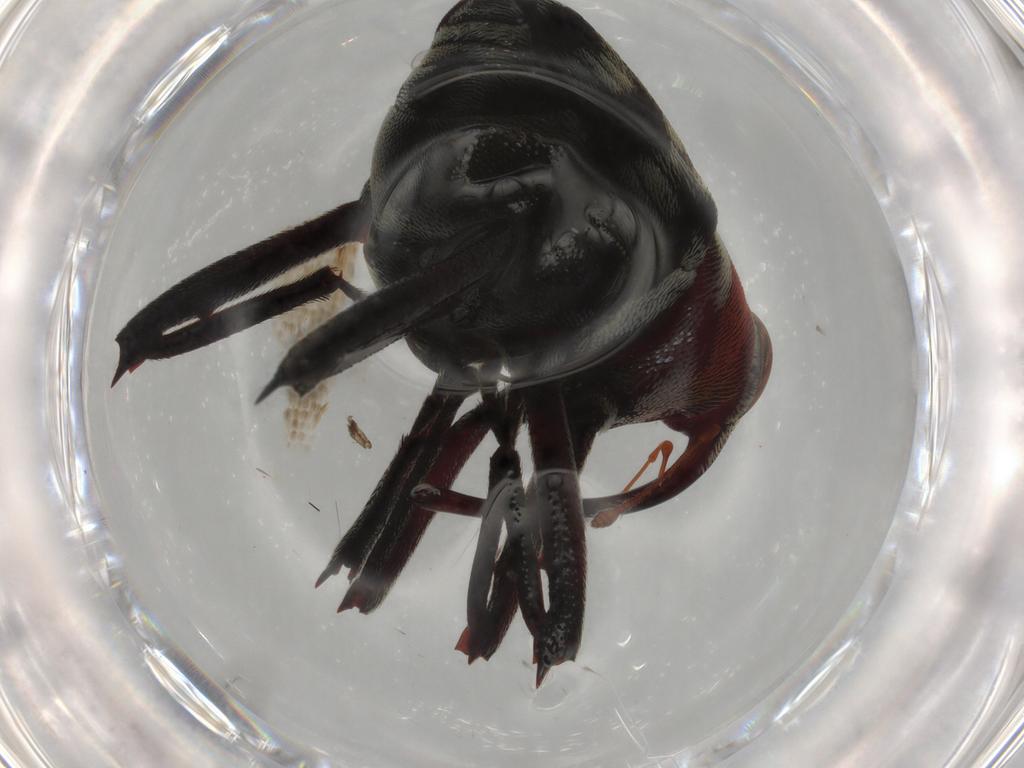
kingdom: Animalia
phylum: Arthropoda
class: Insecta
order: Coleoptera
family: Curculionidae
